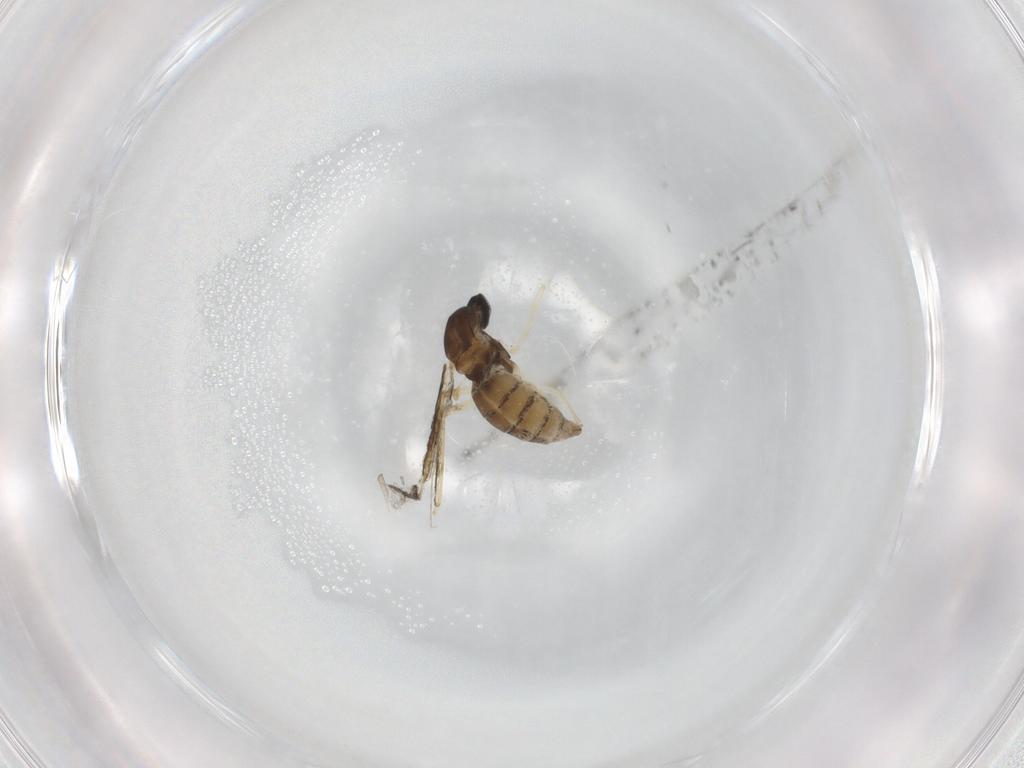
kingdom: Animalia
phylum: Arthropoda
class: Insecta
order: Diptera
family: Cecidomyiidae
